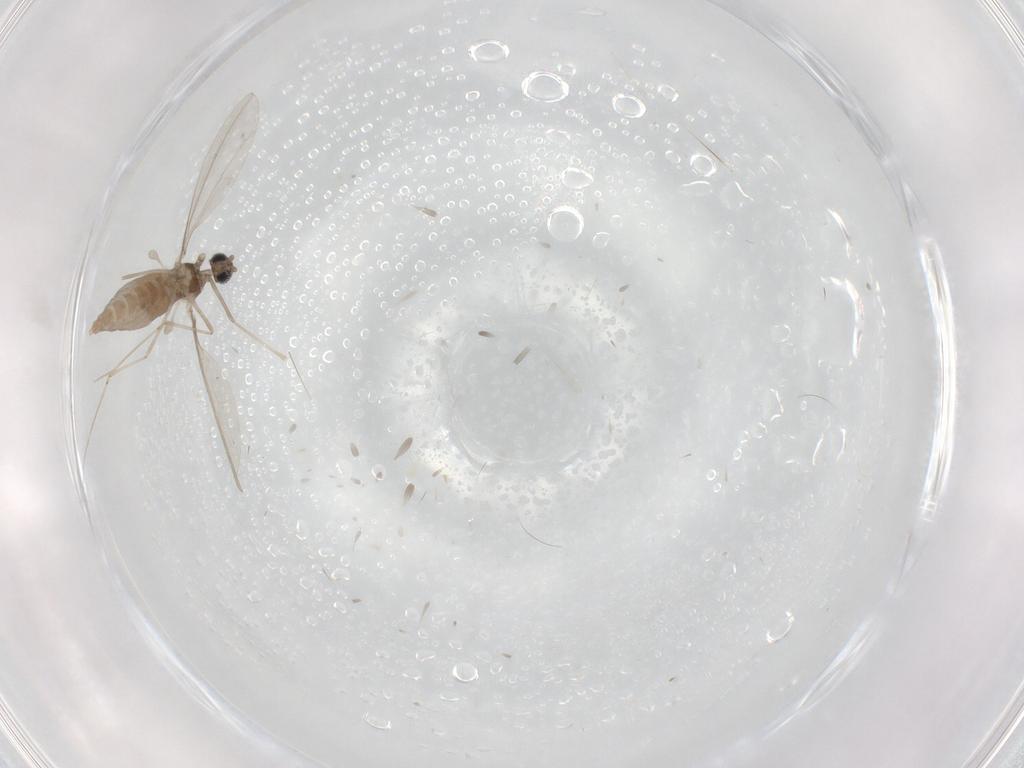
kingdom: Animalia
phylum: Arthropoda
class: Insecta
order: Diptera
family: Cecidomyiidae
